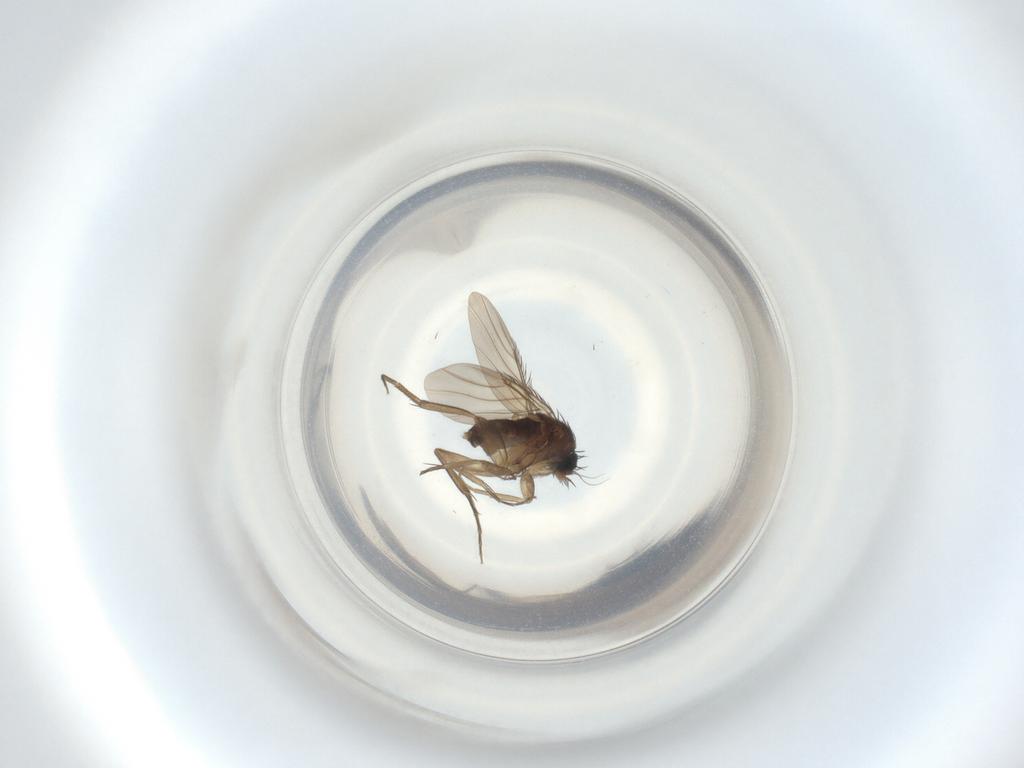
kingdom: Animalia
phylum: Arthropoda
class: Insecta
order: Diptera
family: Phoridae
